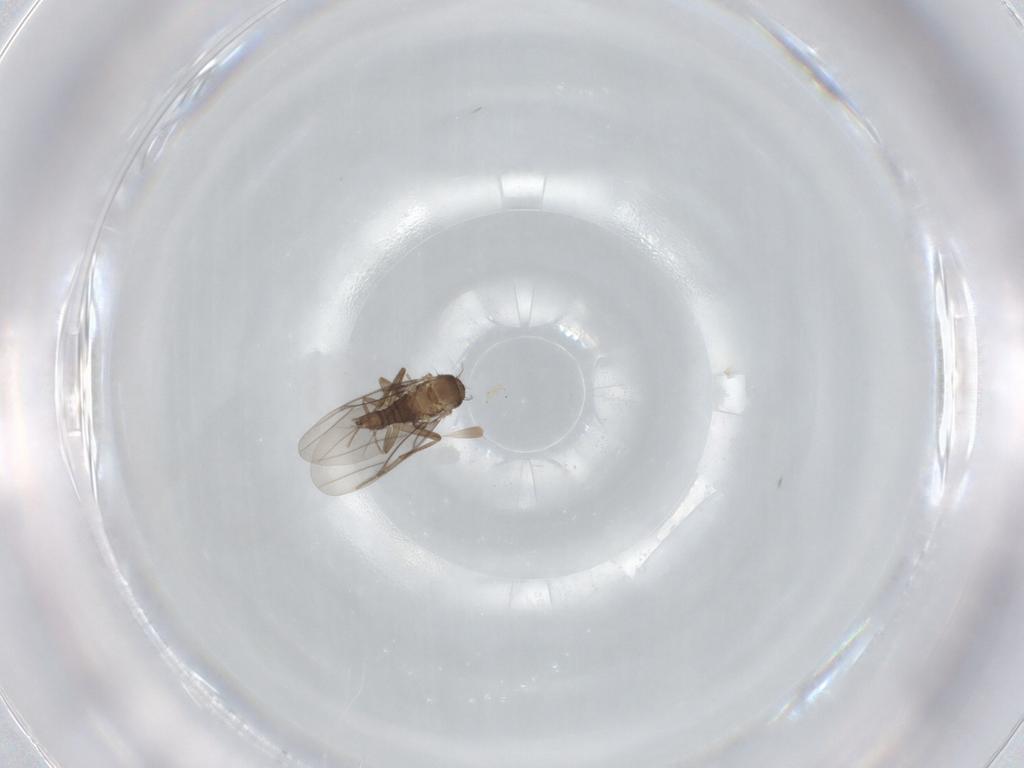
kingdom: Animalia
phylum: Arthropoda
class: Insecta
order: Diptera
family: Psychodidae
